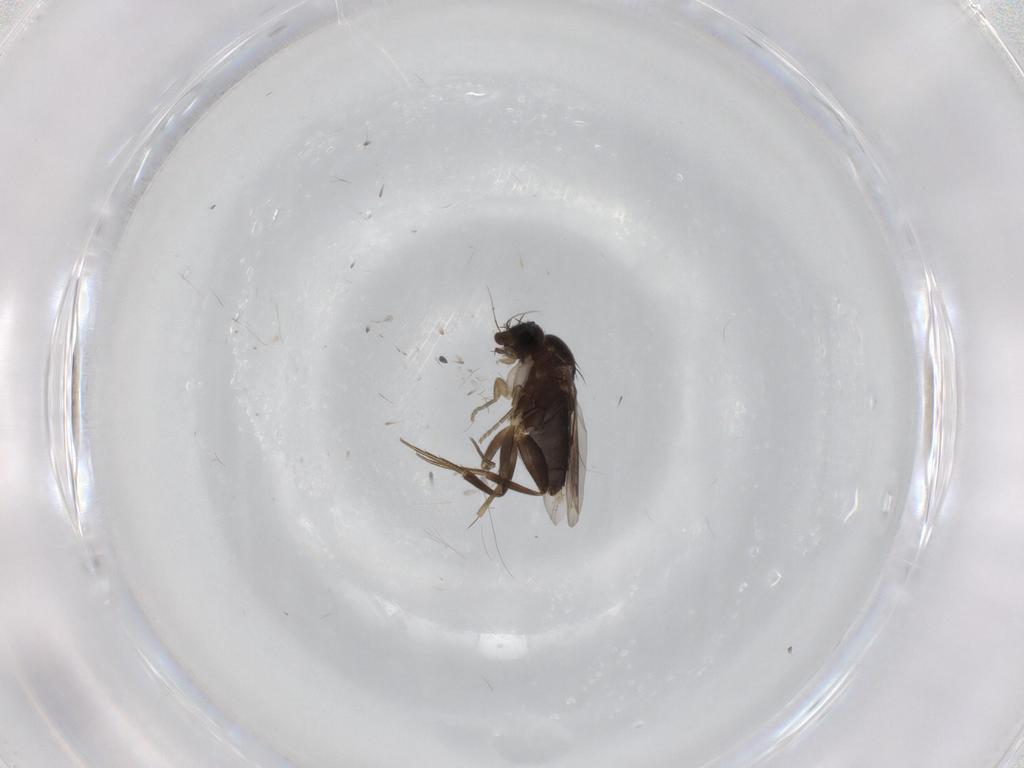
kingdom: Animalia
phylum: Arthropoda
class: Insecta
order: Diptera
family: Phoridae
